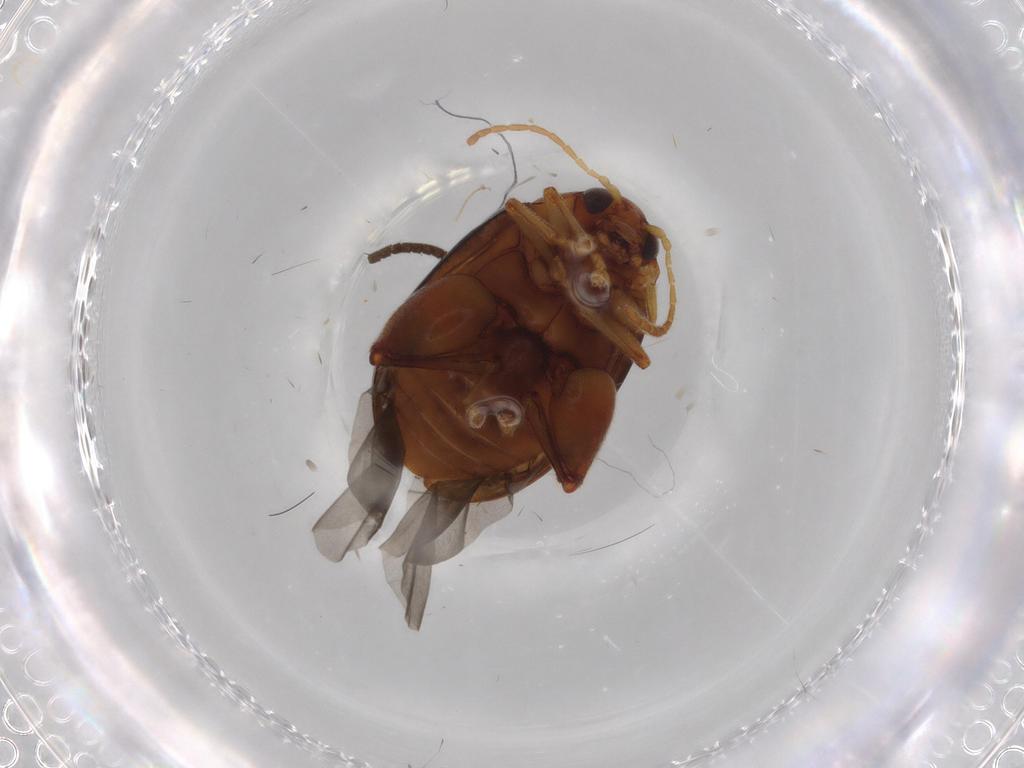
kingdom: Animalia
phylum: Arthropoda
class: Insecta
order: Coleoptera
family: Chrysomelidae
